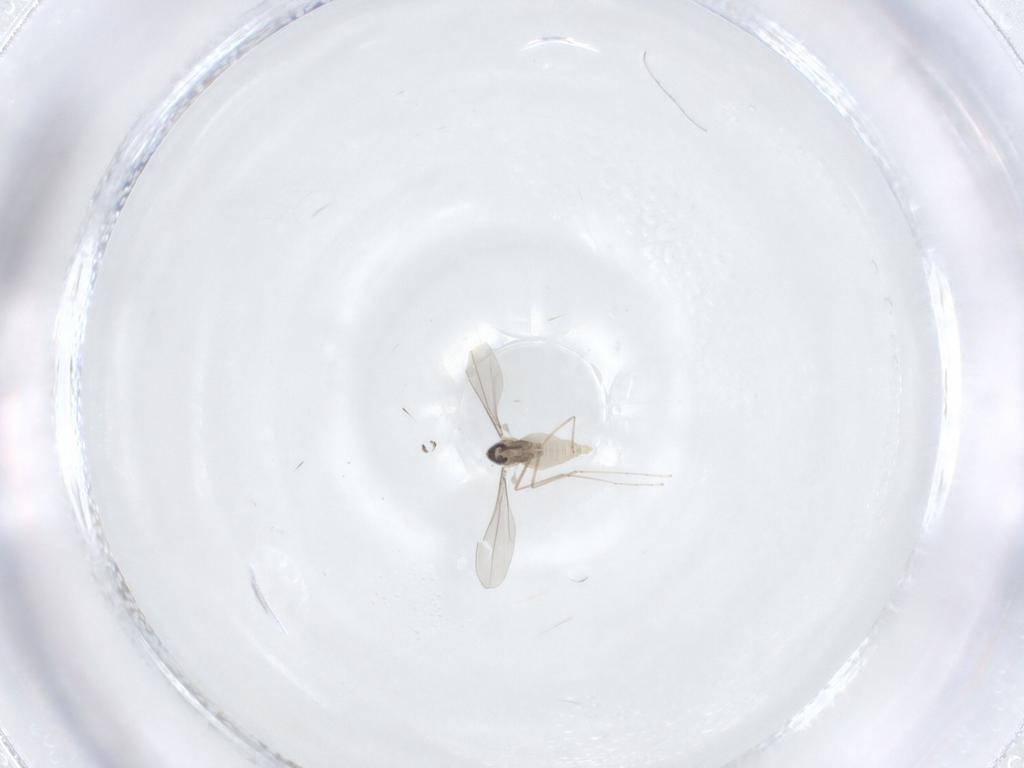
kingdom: Animalia
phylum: Arthropoda
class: Insecta
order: Diptera
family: Cecidomyiidae
